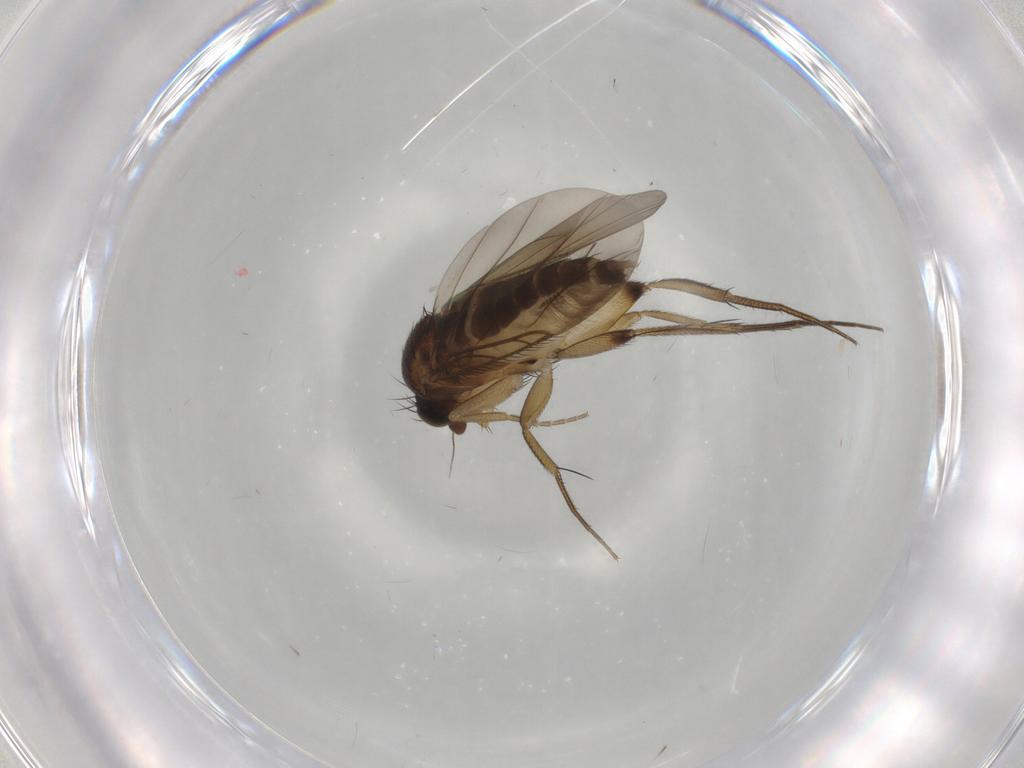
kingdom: Animalia
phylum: Arthropoda
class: Insecta
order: Diptera
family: Phoridae
